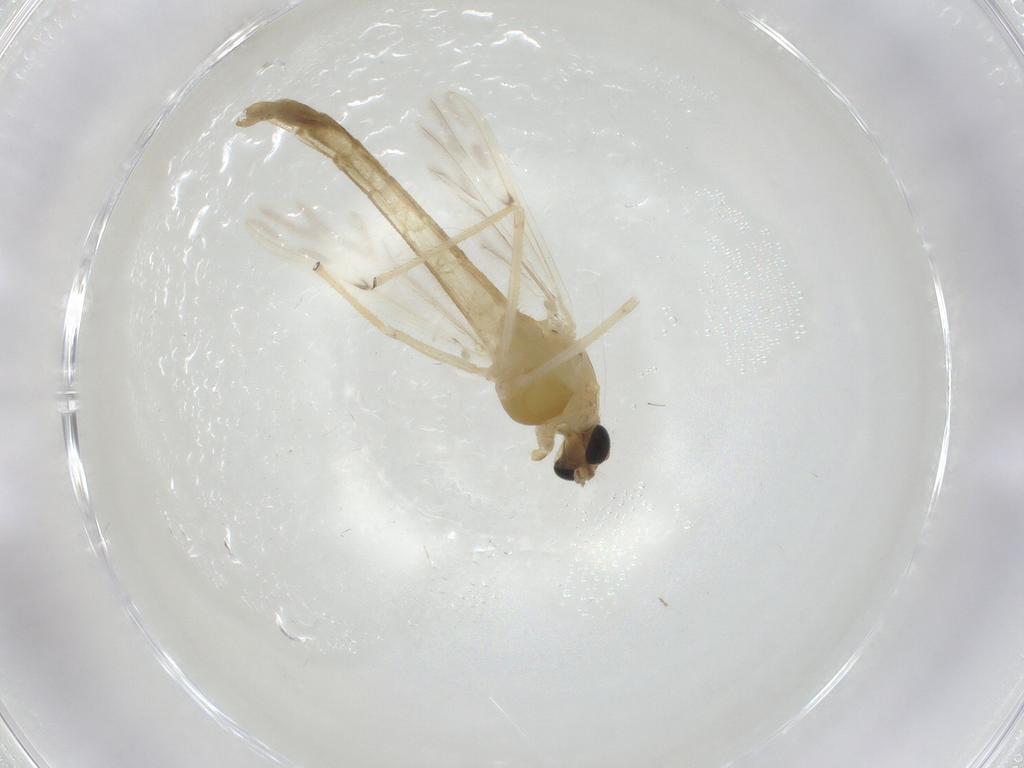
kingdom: Animalia
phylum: Arthropoda
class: Insecta
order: Diptera
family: Chironomidae
